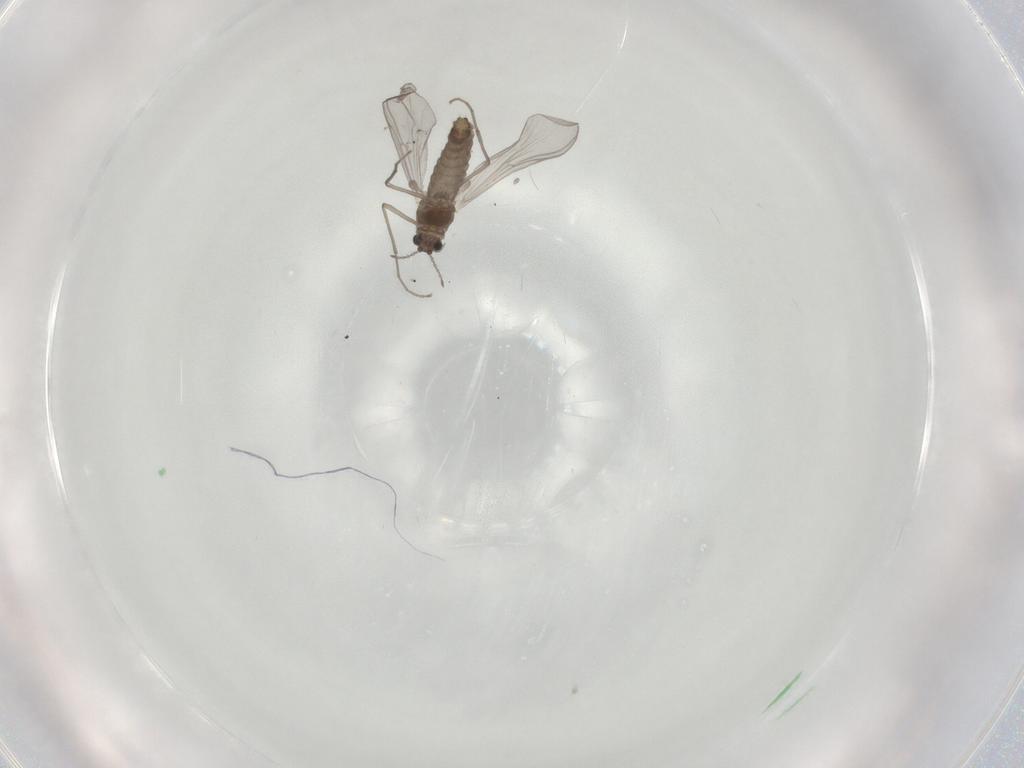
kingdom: Animalia
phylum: Arthropoda
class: Insecta
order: Diptera
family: Chironomidae
